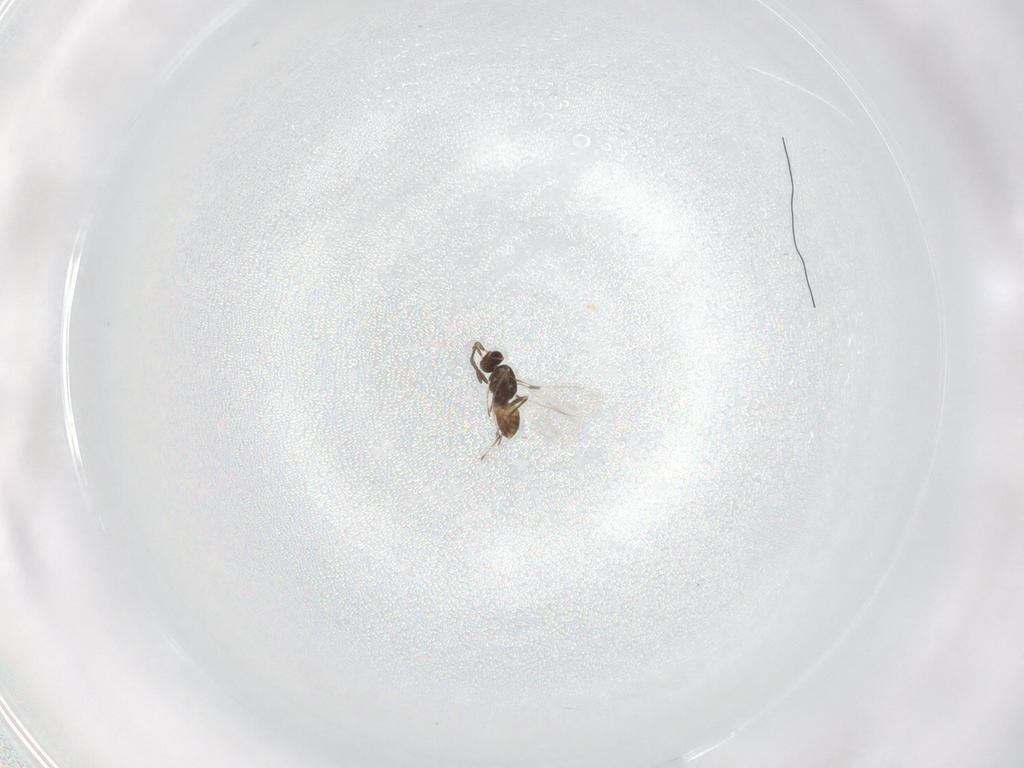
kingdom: Animalia
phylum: Arthropoda
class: Insecta
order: Hymenoptera
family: Mymaridae
